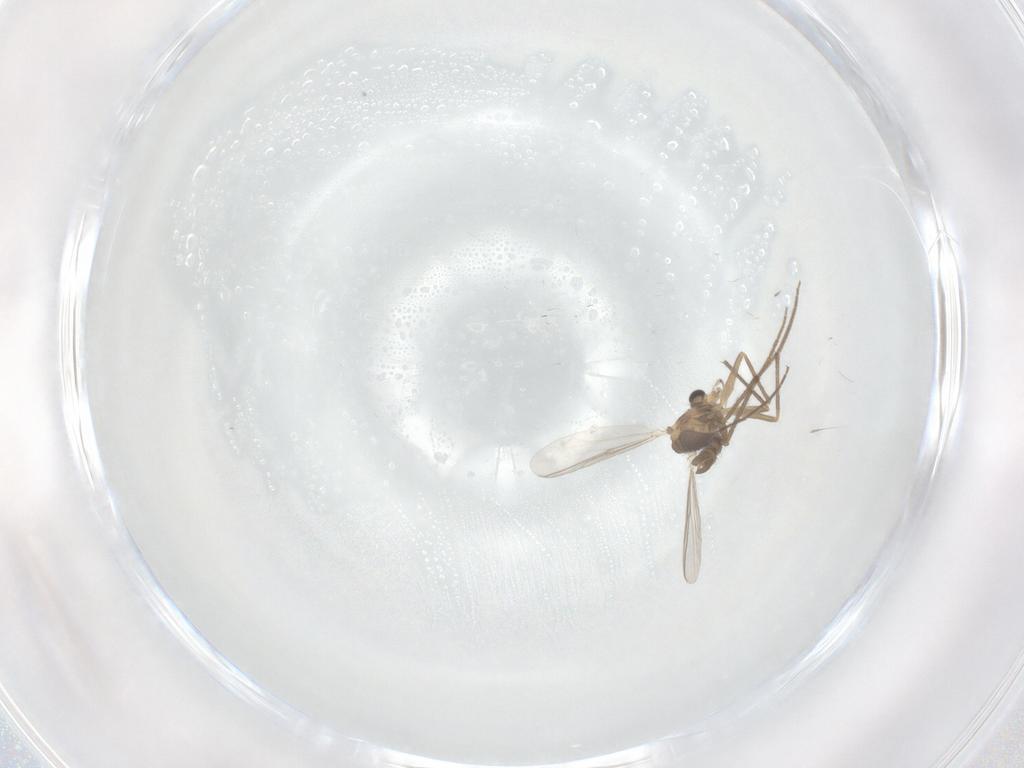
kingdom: Animalia
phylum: Arthropoda
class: Insecta
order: Diptera
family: Chironomidae
